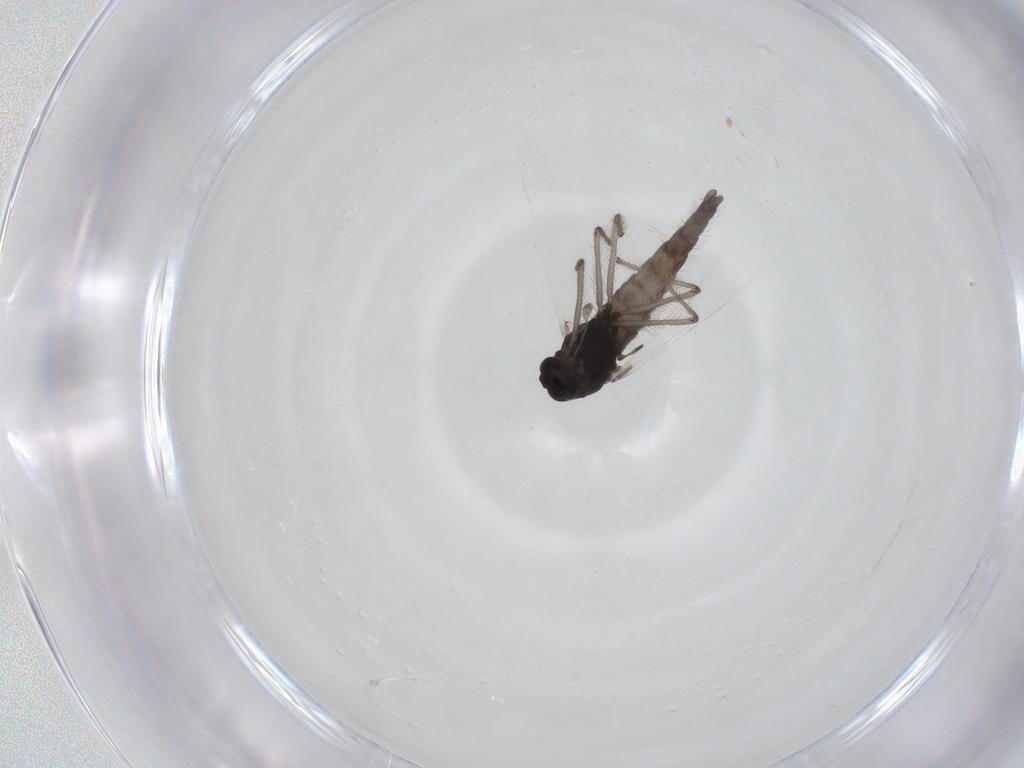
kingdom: Animalia
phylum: Arthropoda
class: Insecta
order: Diptera
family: Chironomidae
